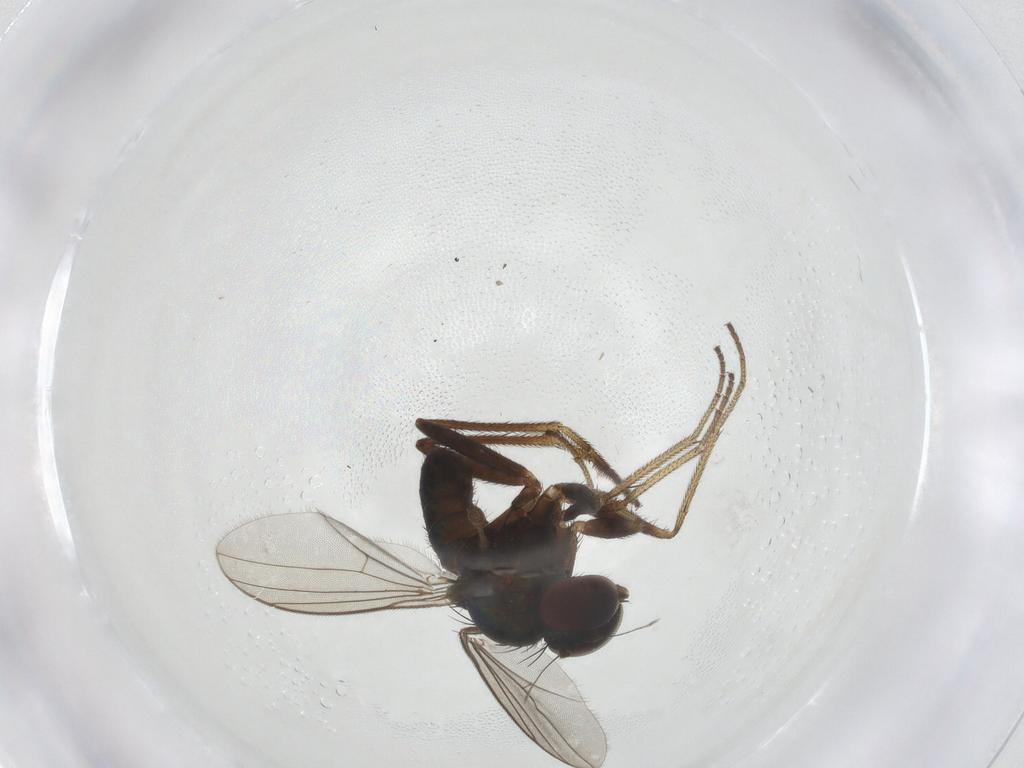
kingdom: Animalia
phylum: Arthropoda
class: Insecta
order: Diptera
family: Dolichopodidae
